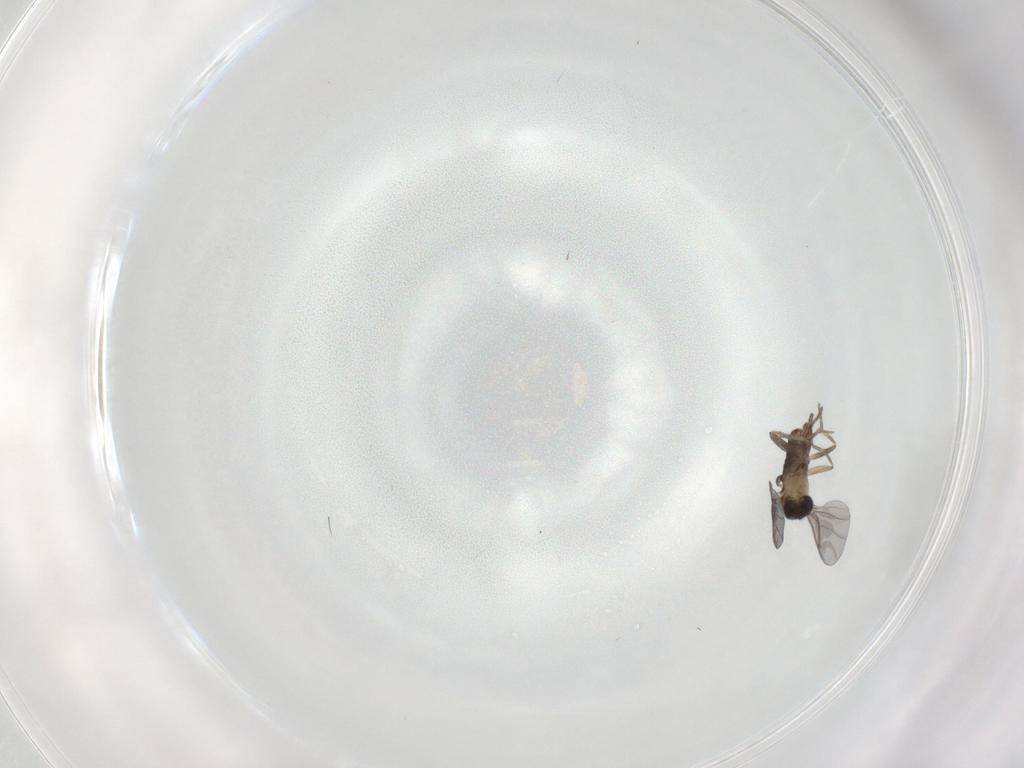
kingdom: Animalia
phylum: Arthropoda
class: Insecta
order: Diptera
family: Phoridae
